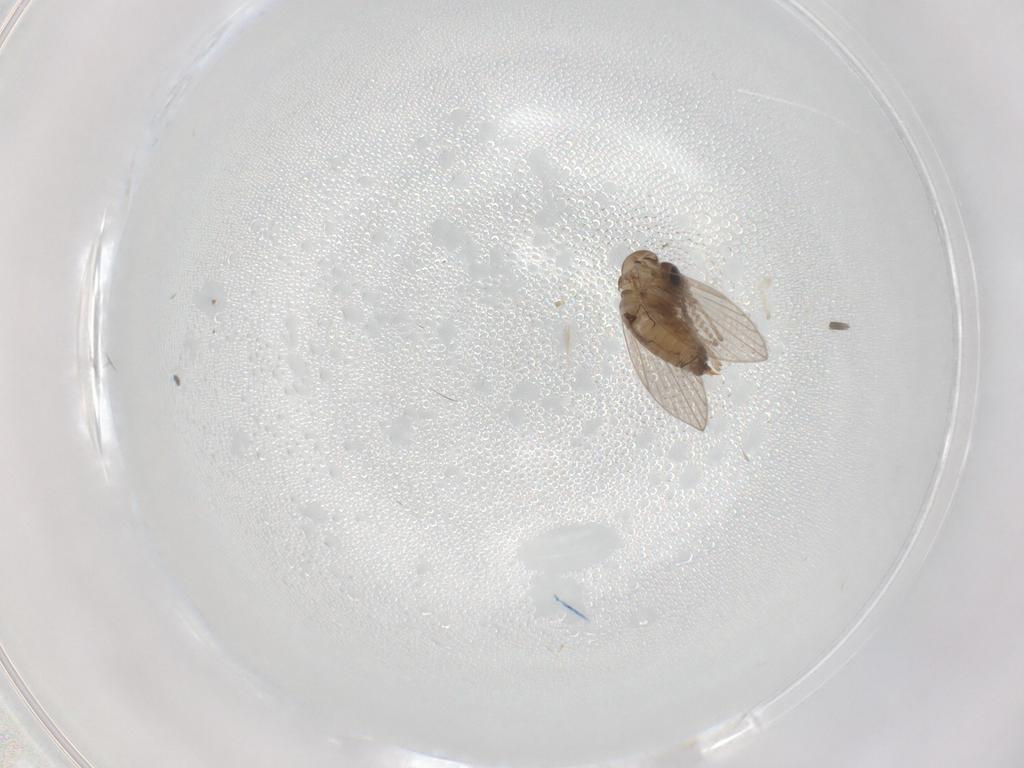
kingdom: Animalia
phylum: Arthropoda
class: Insecta
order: Diptera
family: Psychodidae
